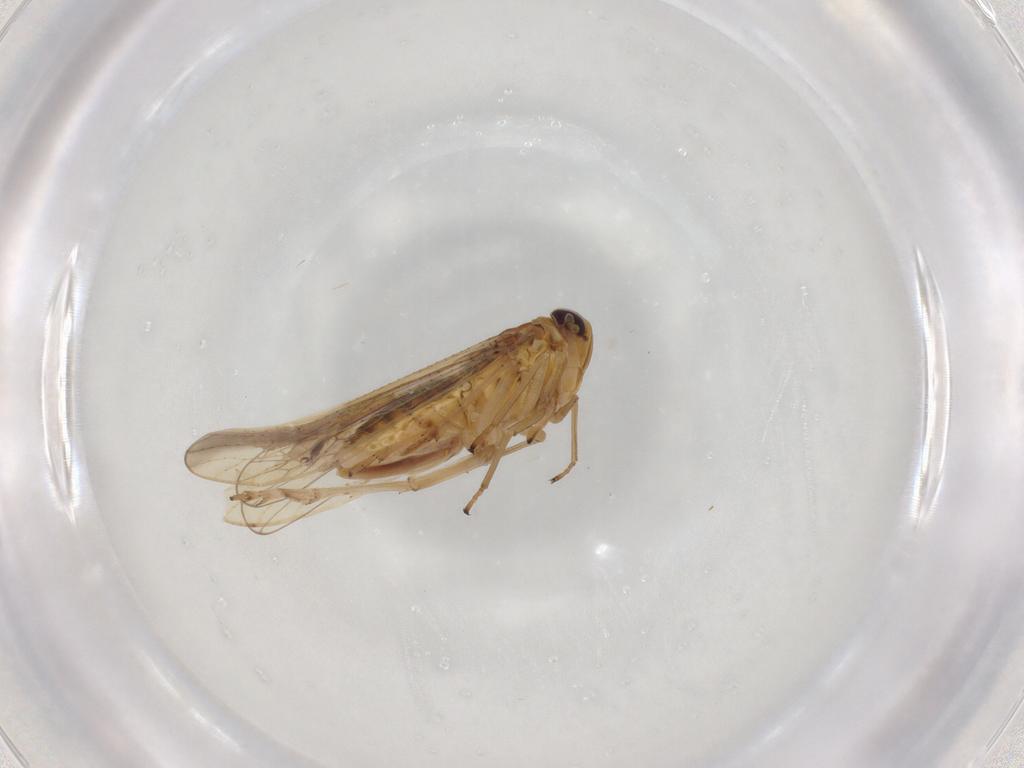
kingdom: Animalia
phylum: Arthropoda
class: Insecta
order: Hemiptera
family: Delphacidae
